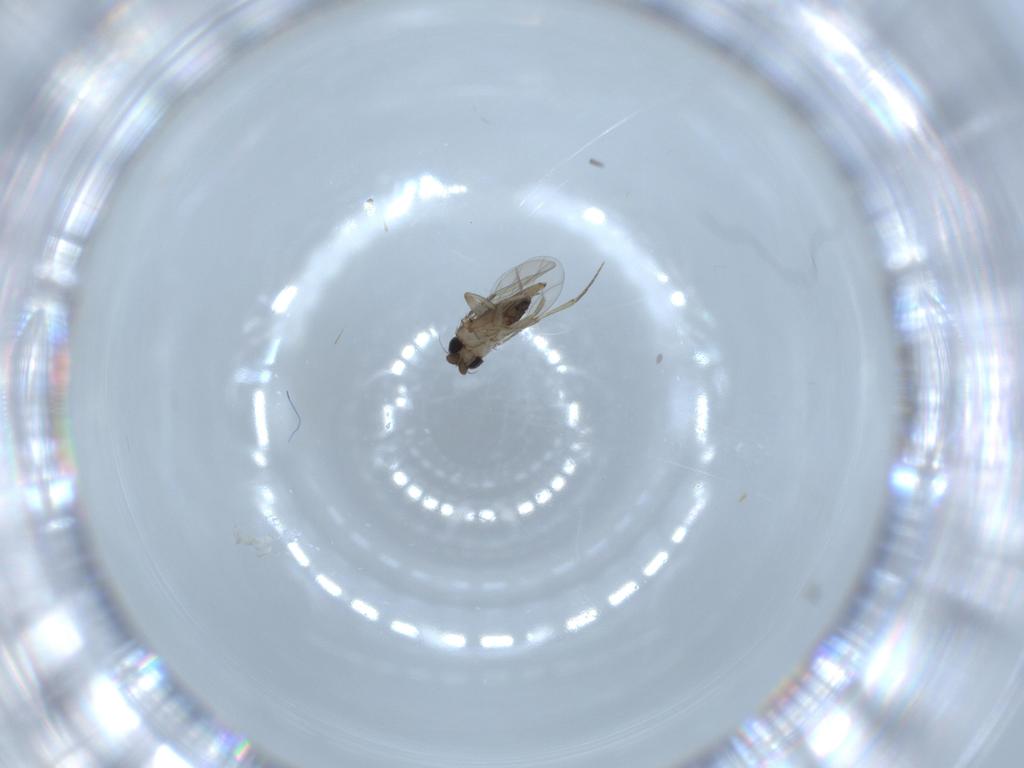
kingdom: Animalia
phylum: Arthropoda
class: Insecta
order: Diptera
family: Phoridae
